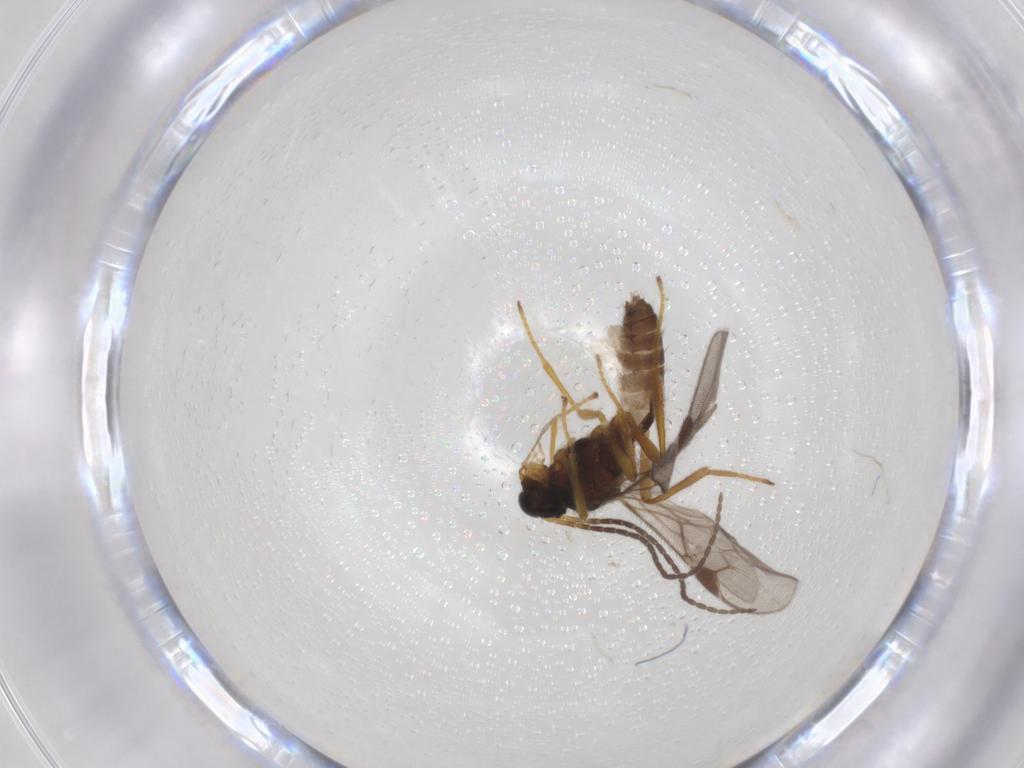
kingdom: Animalia
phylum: Arthropoda
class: Insecta
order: Hymenoptera
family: Braconidae
